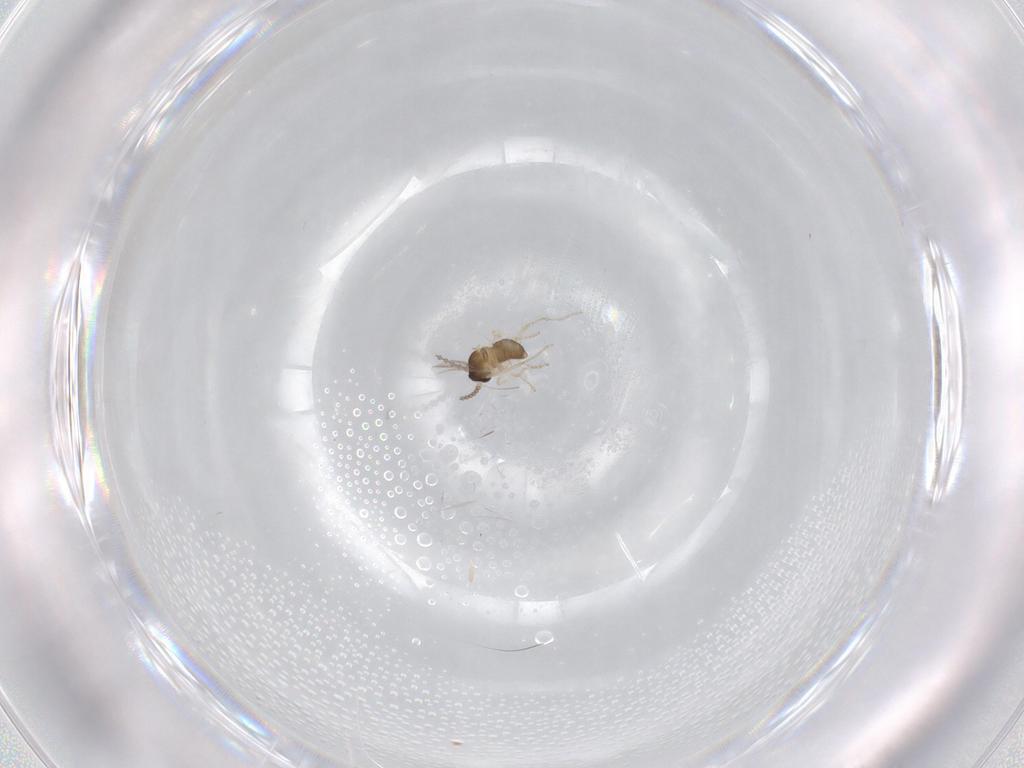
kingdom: Animalia
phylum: Arthropoda
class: Insecta
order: Diptera
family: Cecidomyiidae
